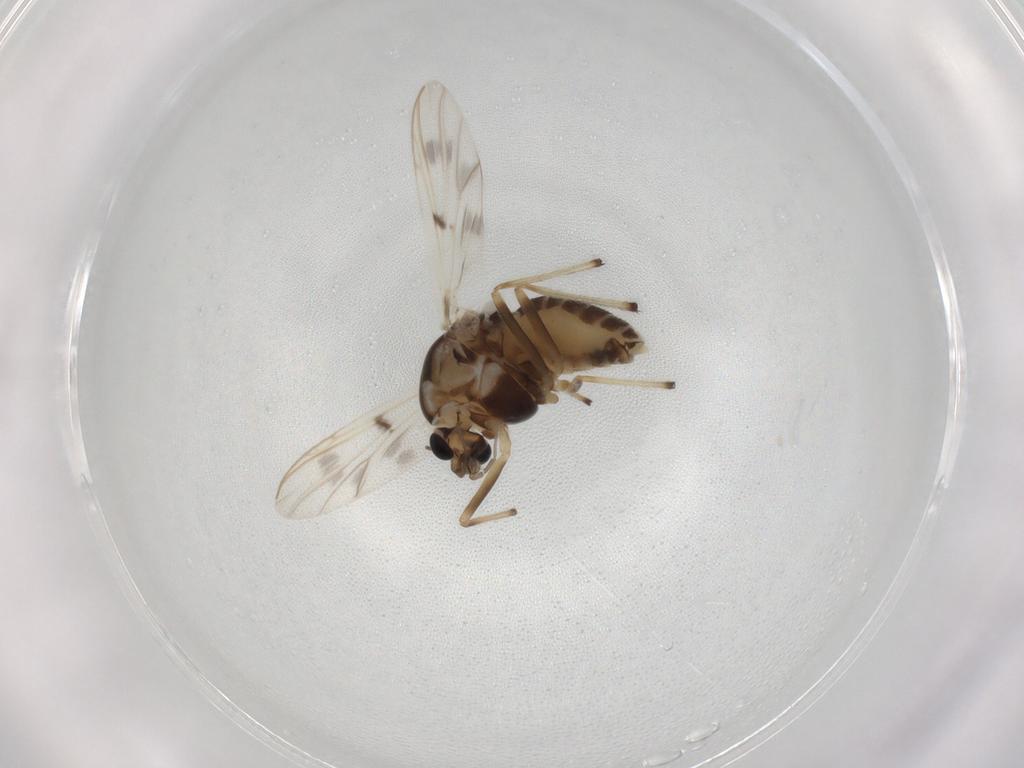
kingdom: Animalia
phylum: Arthropoda
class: Insecta
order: Diptera
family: Chironomidae
